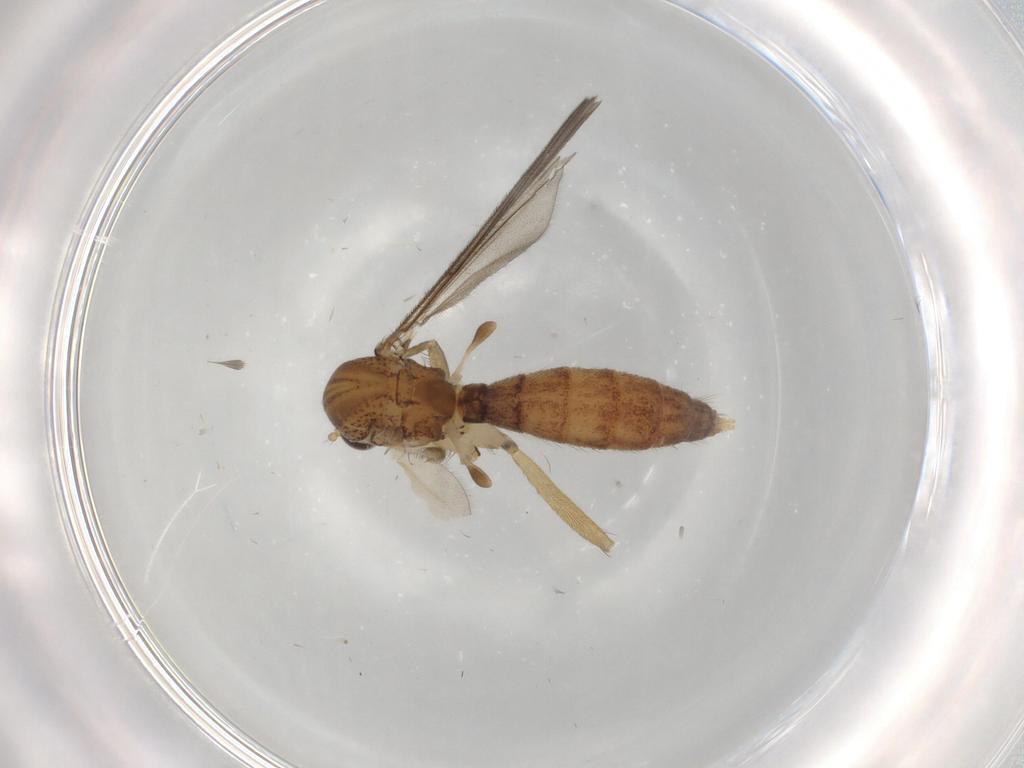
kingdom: Animalia
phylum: Arthropoda
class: Insecta
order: Diptera
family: Mycetophilidae
